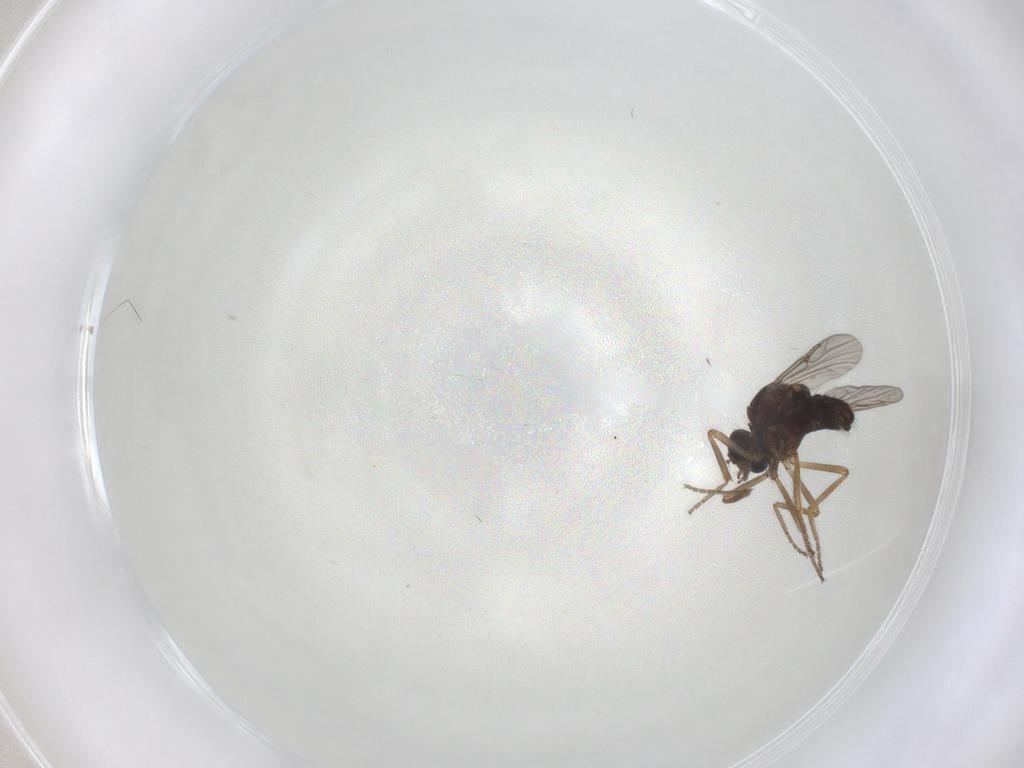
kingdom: Animalia
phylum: Arthropoda
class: Insecta
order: Diptera
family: Ceratopogonidae
